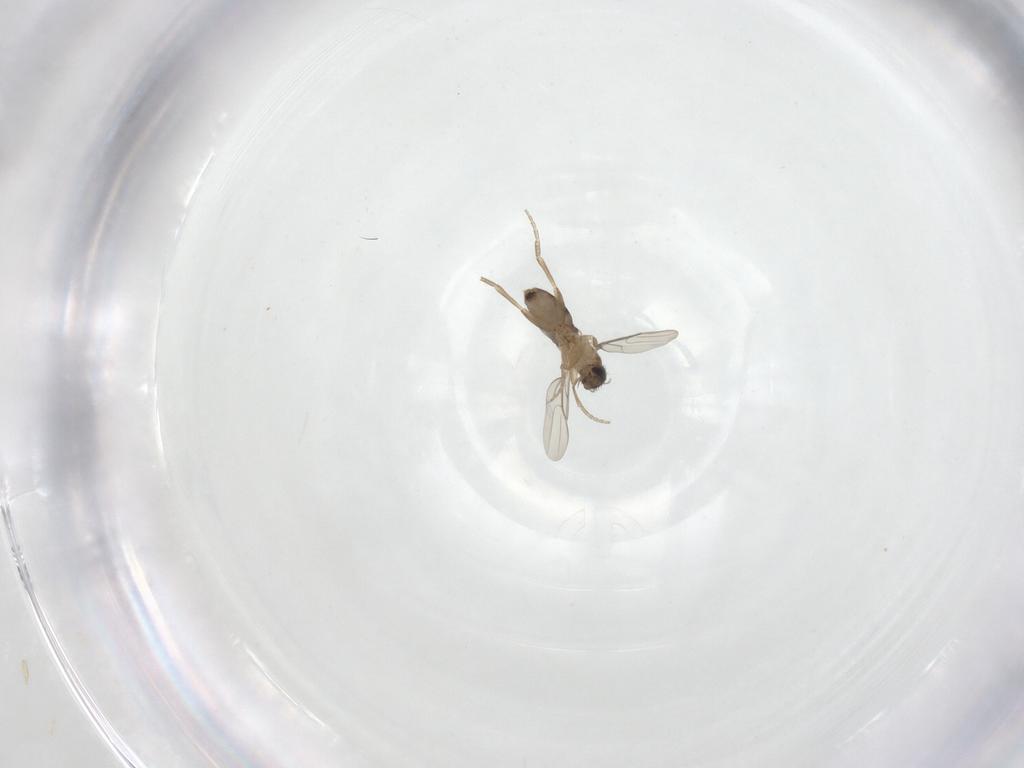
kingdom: Animalia
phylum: Arthropoda
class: Insecta
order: Diptera
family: Phoridae
